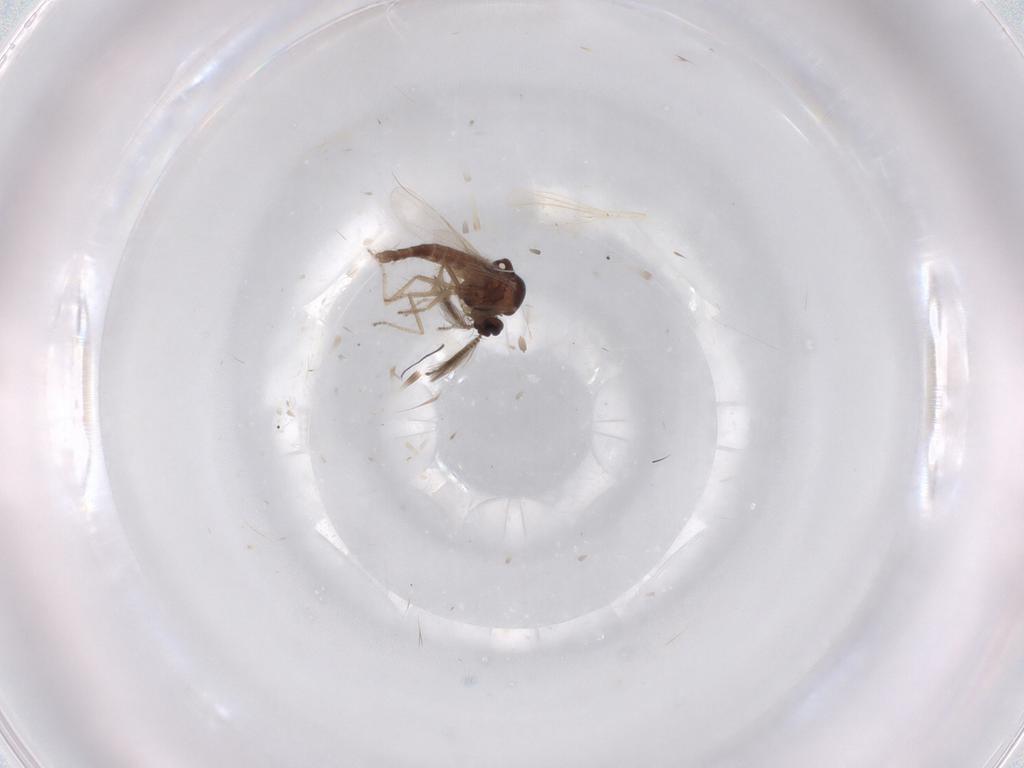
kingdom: Animalia
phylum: Arthropoda
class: Insecta
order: Diptera
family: Ceratopogonidae
